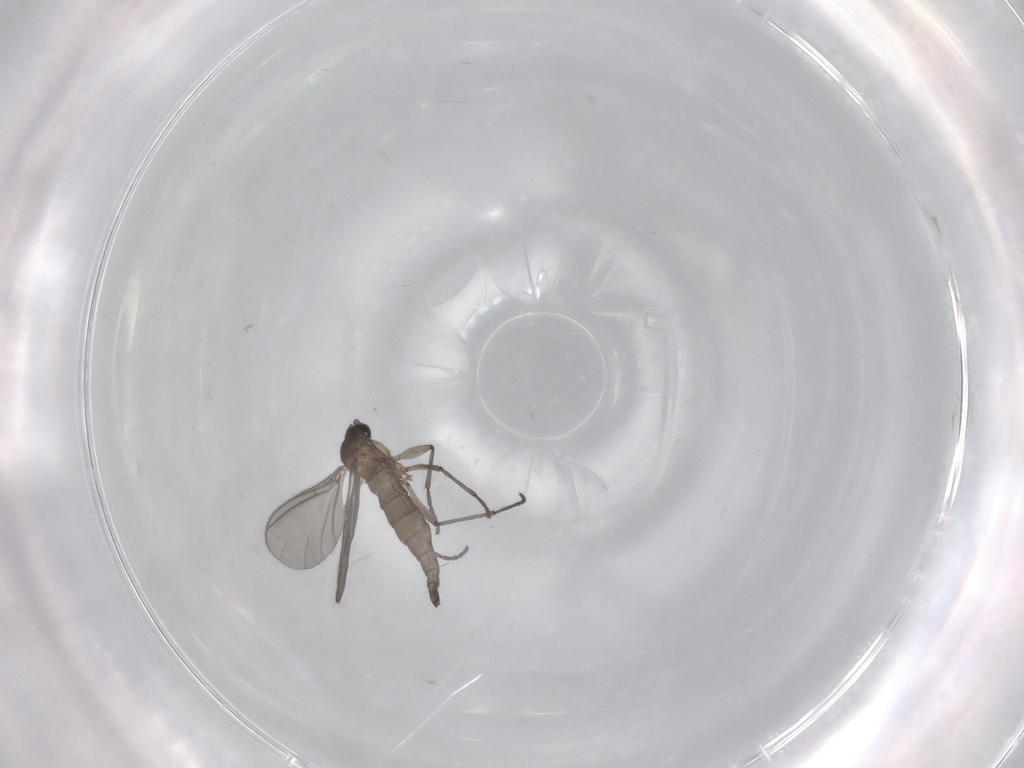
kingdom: Animalia
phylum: Arthropoda
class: Insecta
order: Diptera
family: Sciaridae
